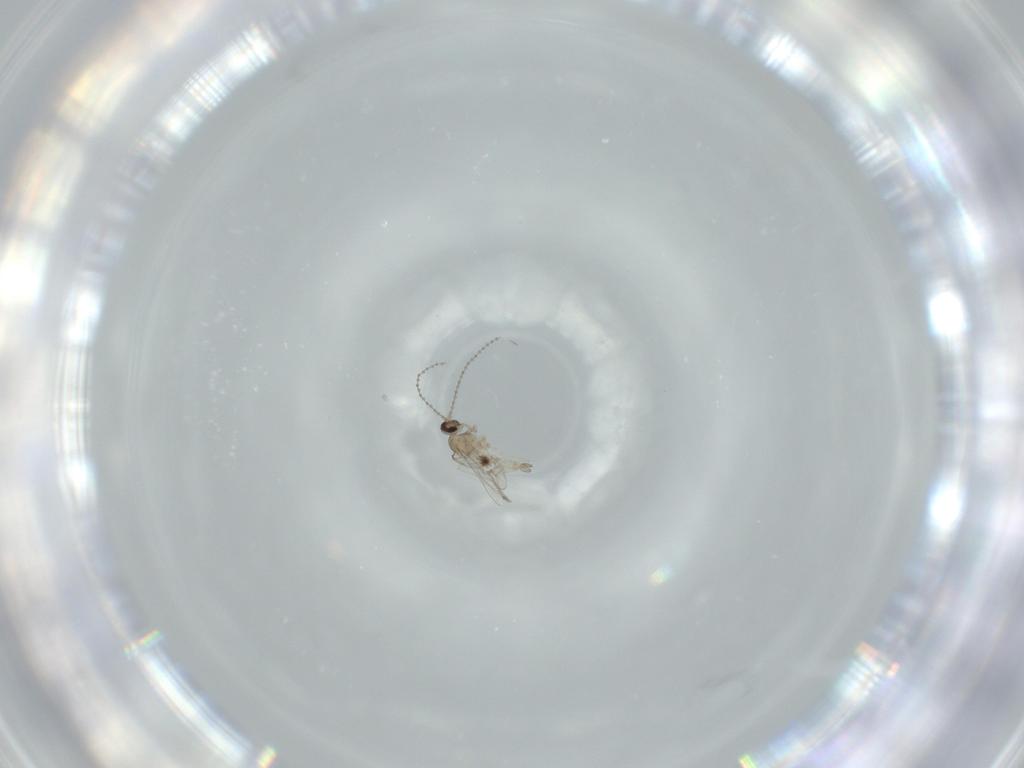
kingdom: Animalia
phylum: Arthropoda
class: Insecta
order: Diptera
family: Cecidomyiidae
